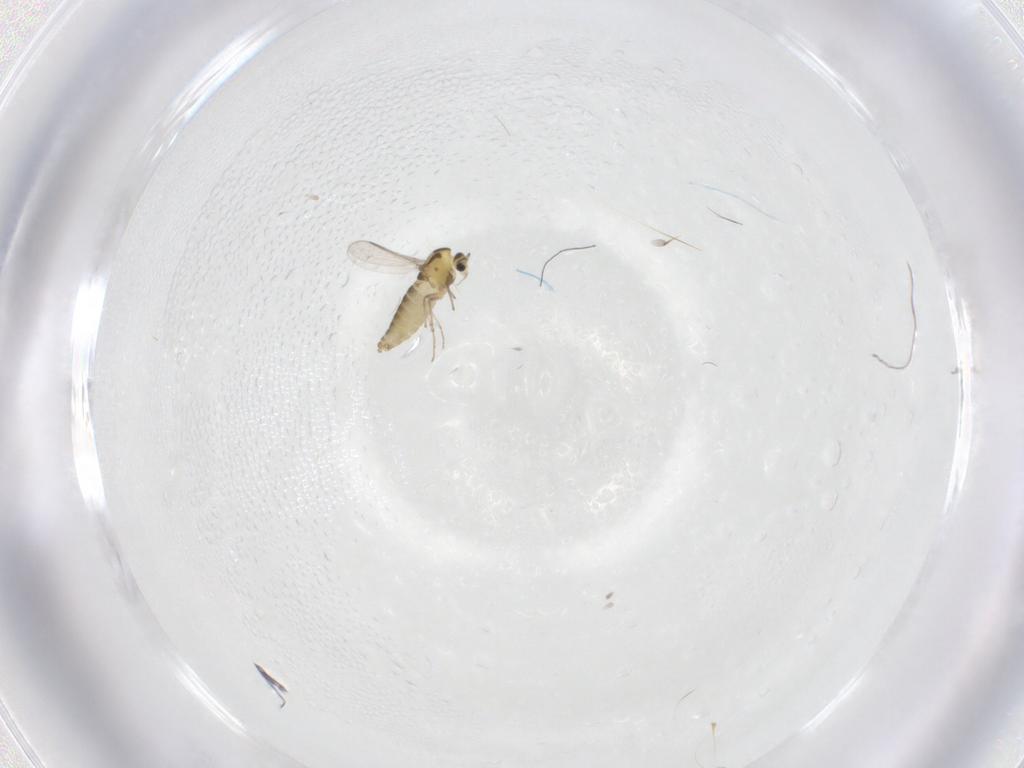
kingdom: Animalia
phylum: Arthropoda
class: Insecta
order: Diptera
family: Chironomidae
